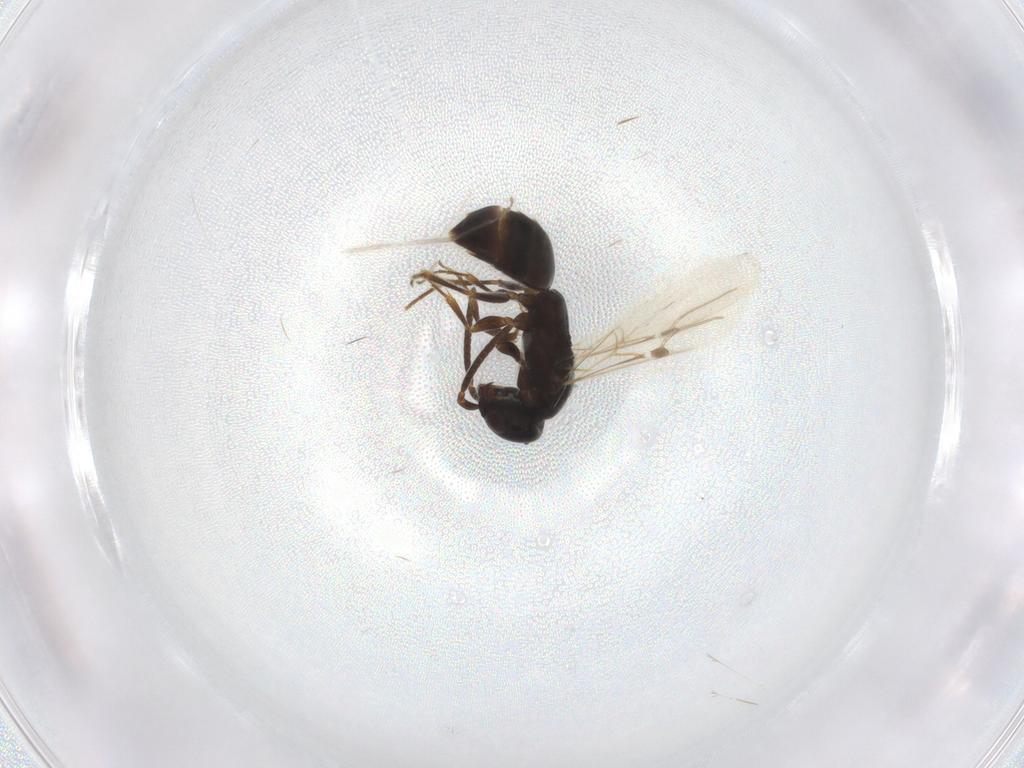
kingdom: Animalia
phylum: Arthropoda
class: Insecta
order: Hymenoptera
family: Bethylidae
